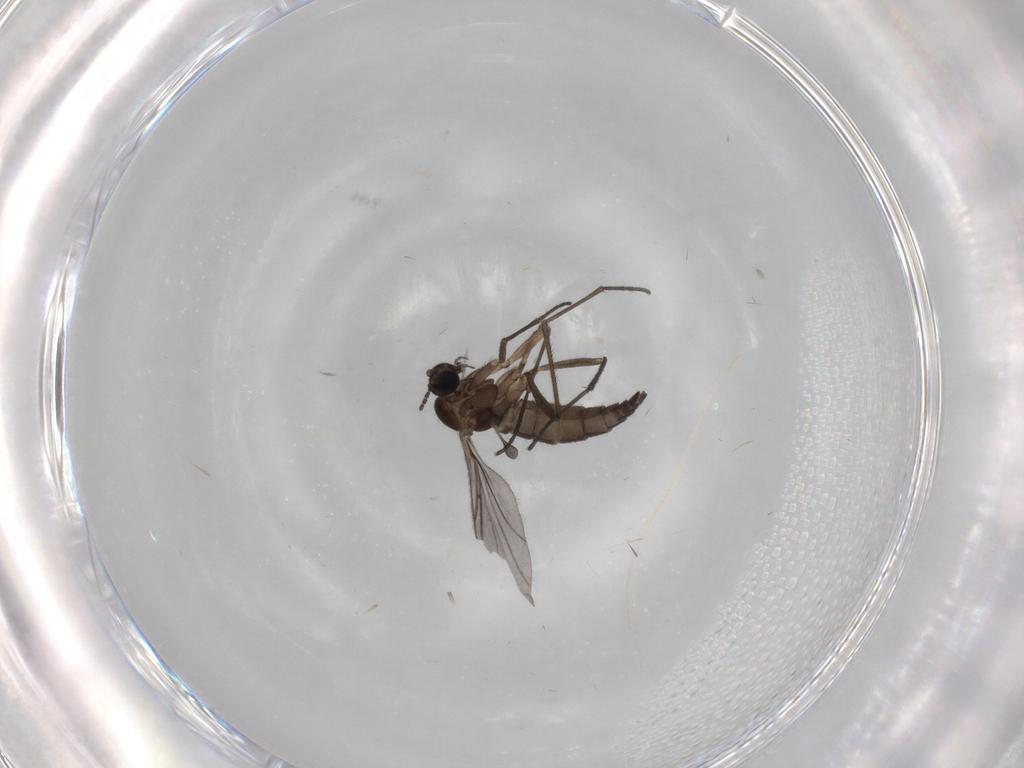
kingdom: Animalia
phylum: Arthropoda
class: Insecta
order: Diptera
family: Sciaridae
